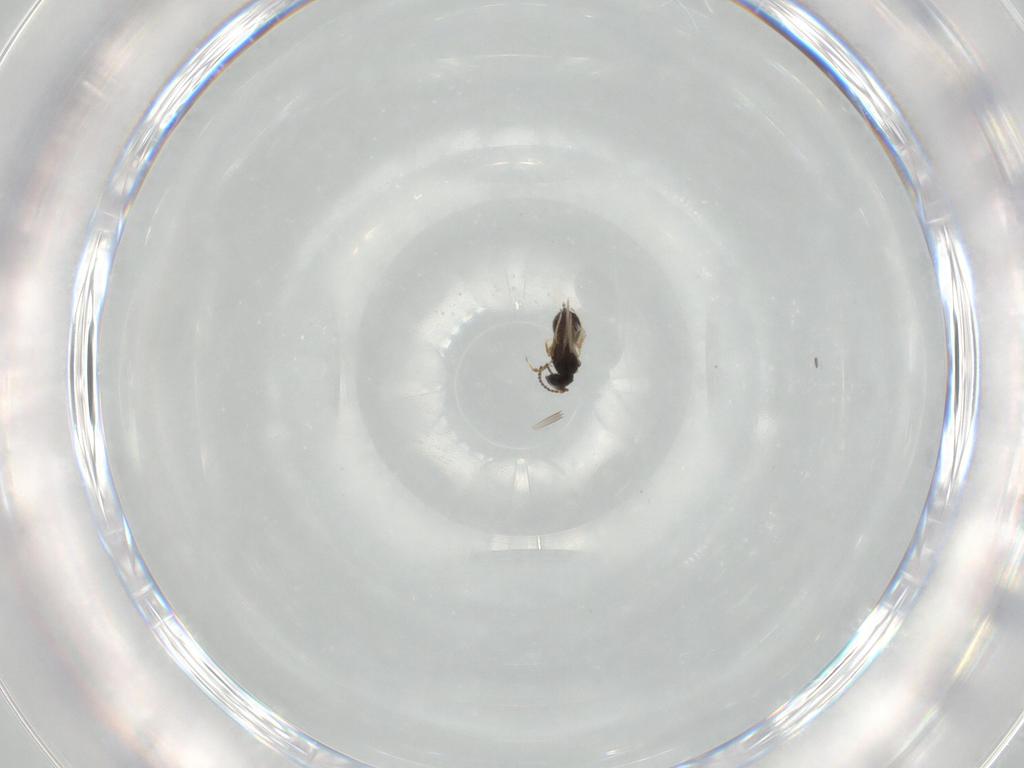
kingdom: Animalia
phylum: Arthropoda
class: Insecta
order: Hymenoptera
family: Scelionidae
